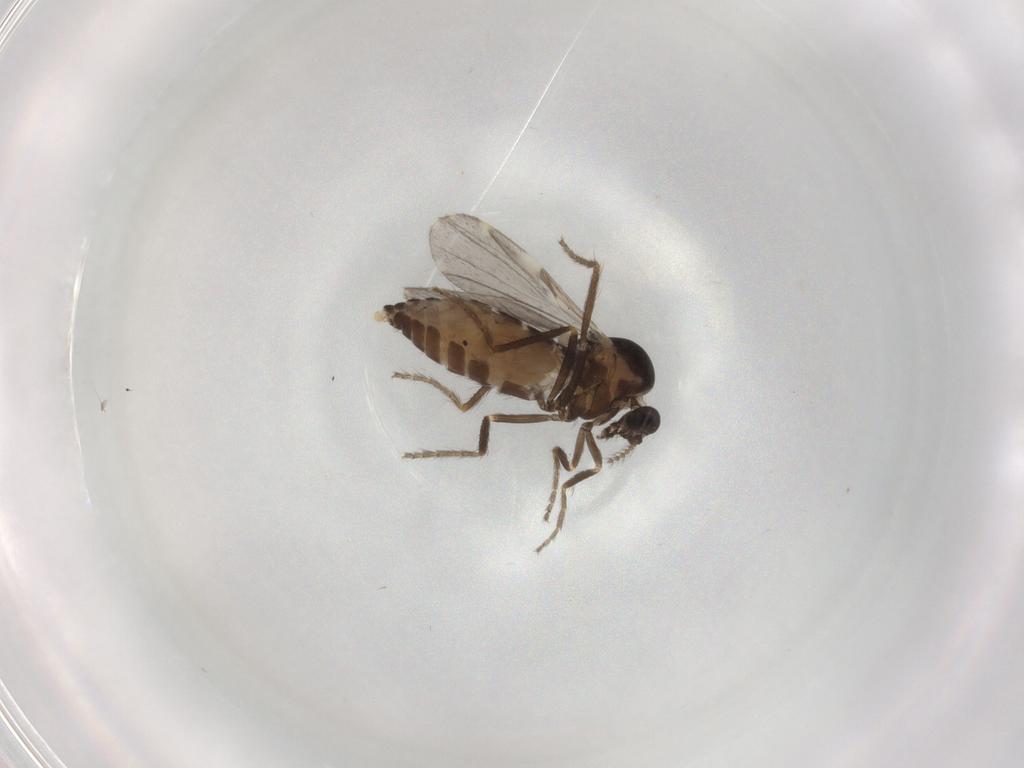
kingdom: Animalia
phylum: Arthropoda
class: Insecta
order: Diptera
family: Ceratopogonidae
